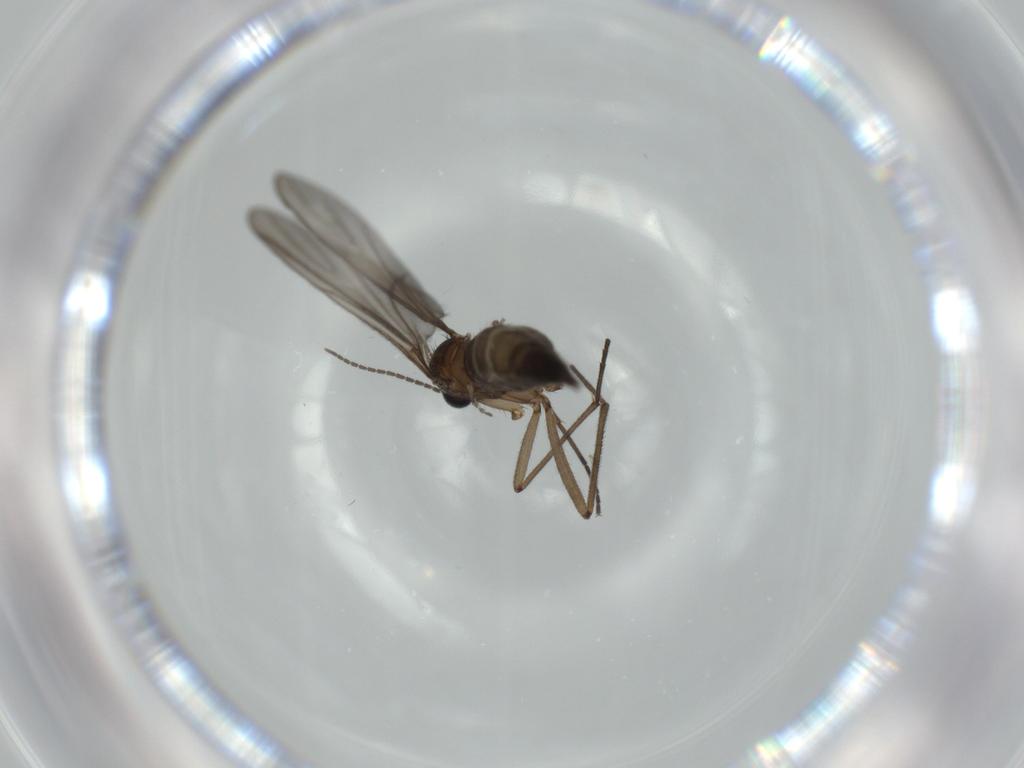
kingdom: Animalia
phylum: Arthropoda
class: Insecta
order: Diptera
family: Sciaridae
